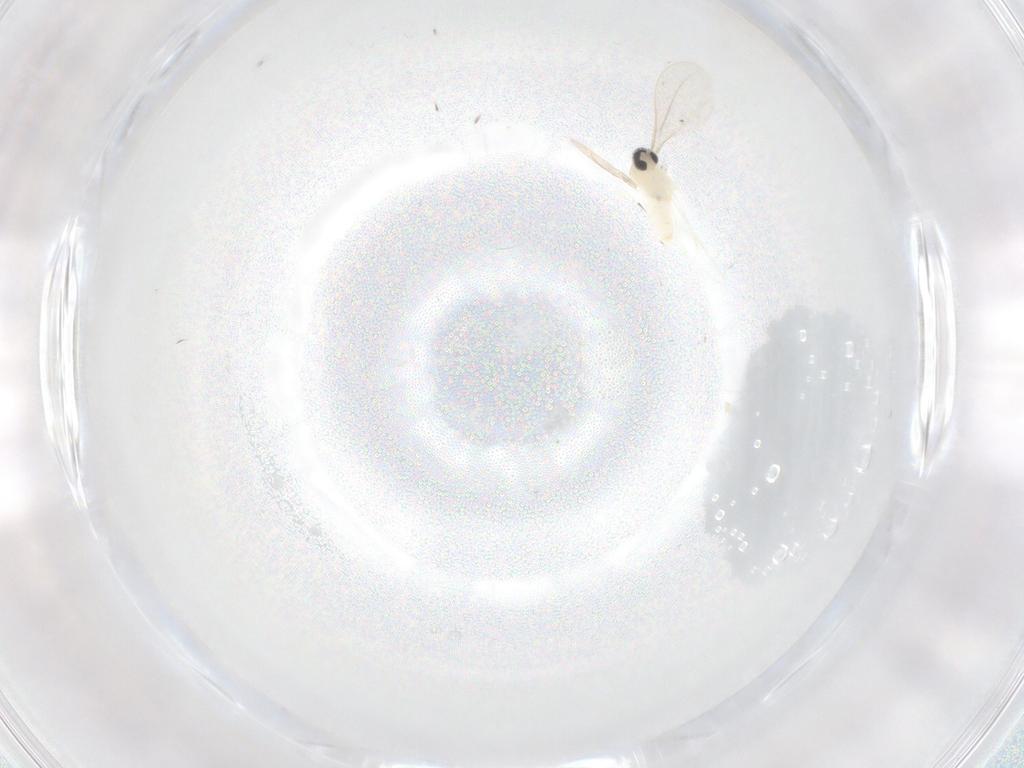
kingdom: Animalia
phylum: Arthropoda
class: Insecta
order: Diptera
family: Cecidomyiidae
